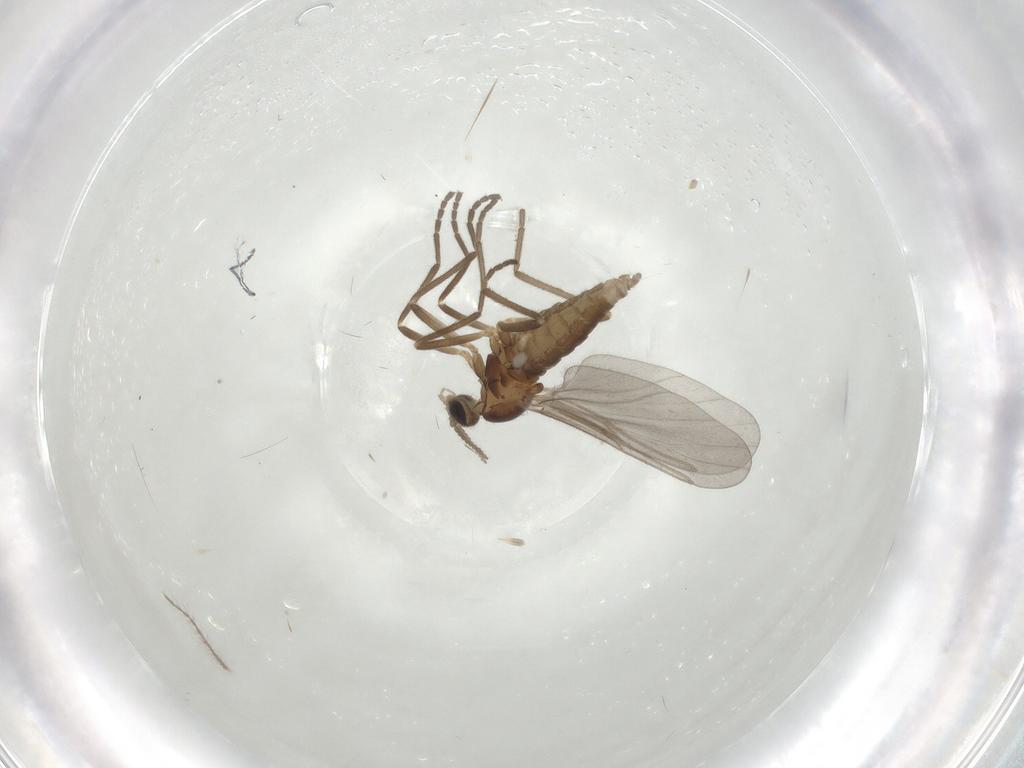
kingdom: Animalia
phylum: Arthropoda
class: Insecta
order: Diptera
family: Cecidomyiidae
